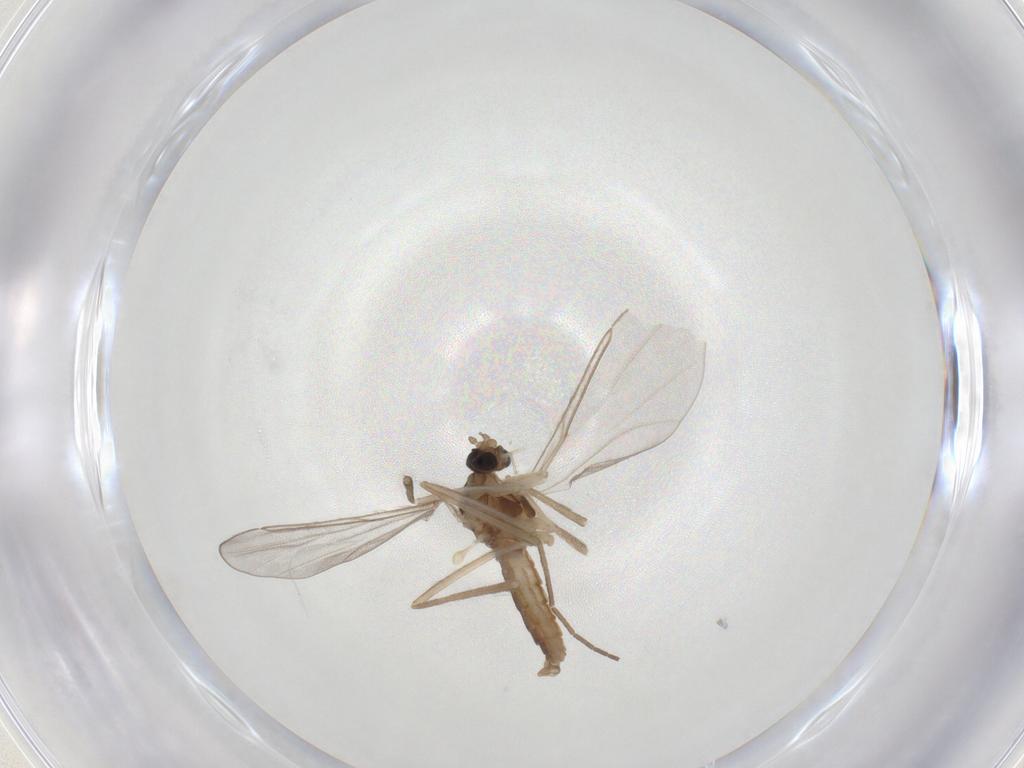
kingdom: Animalia
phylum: Arthropoda
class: Insecta
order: Diptera
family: Cecidomyiidae
